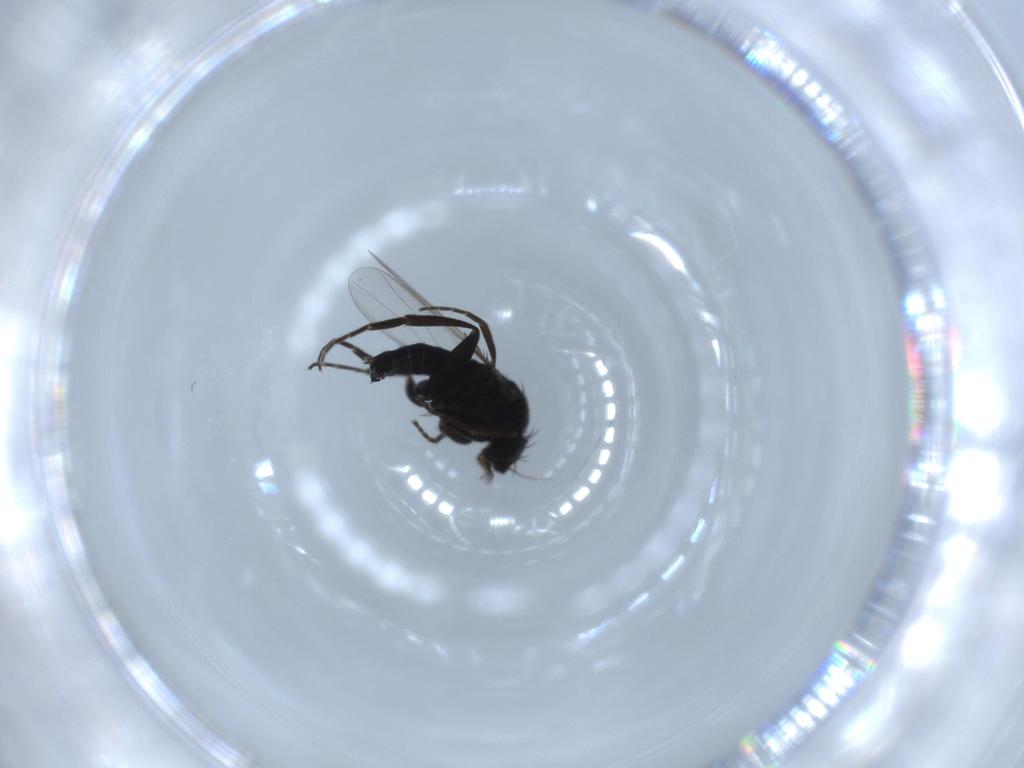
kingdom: Animalia
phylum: Arthropoda
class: Insecta
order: Diptera
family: Phoridae
